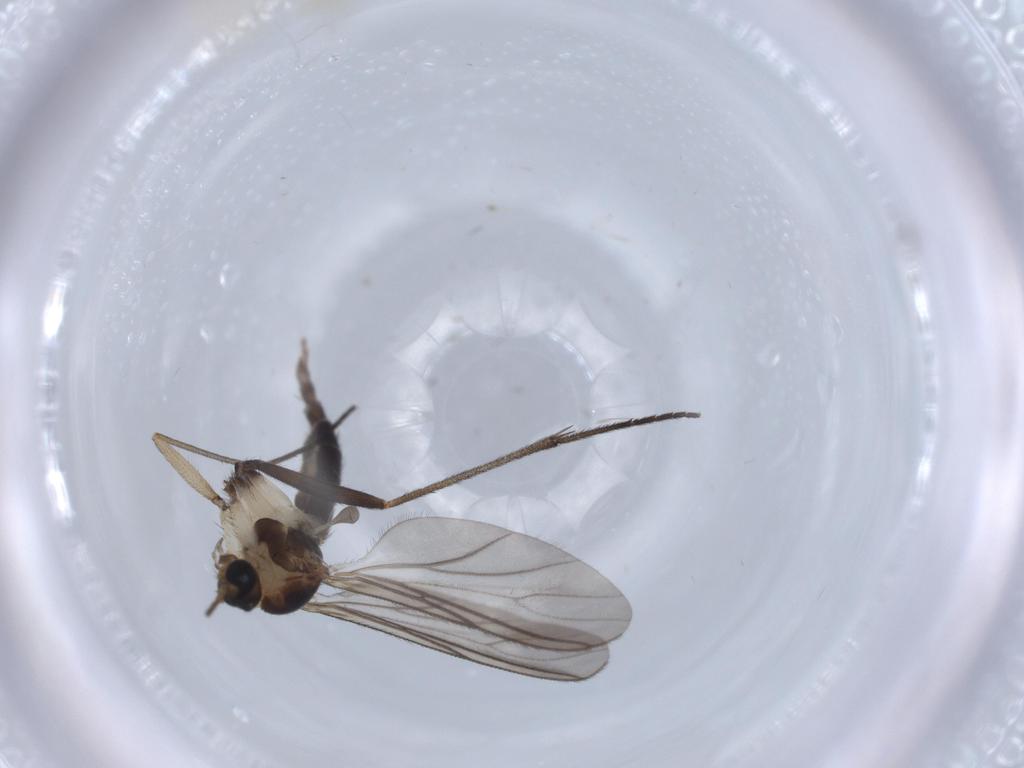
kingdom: Animalia
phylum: Arthropoda
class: Insecta
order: Diptera
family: Sciaridae
